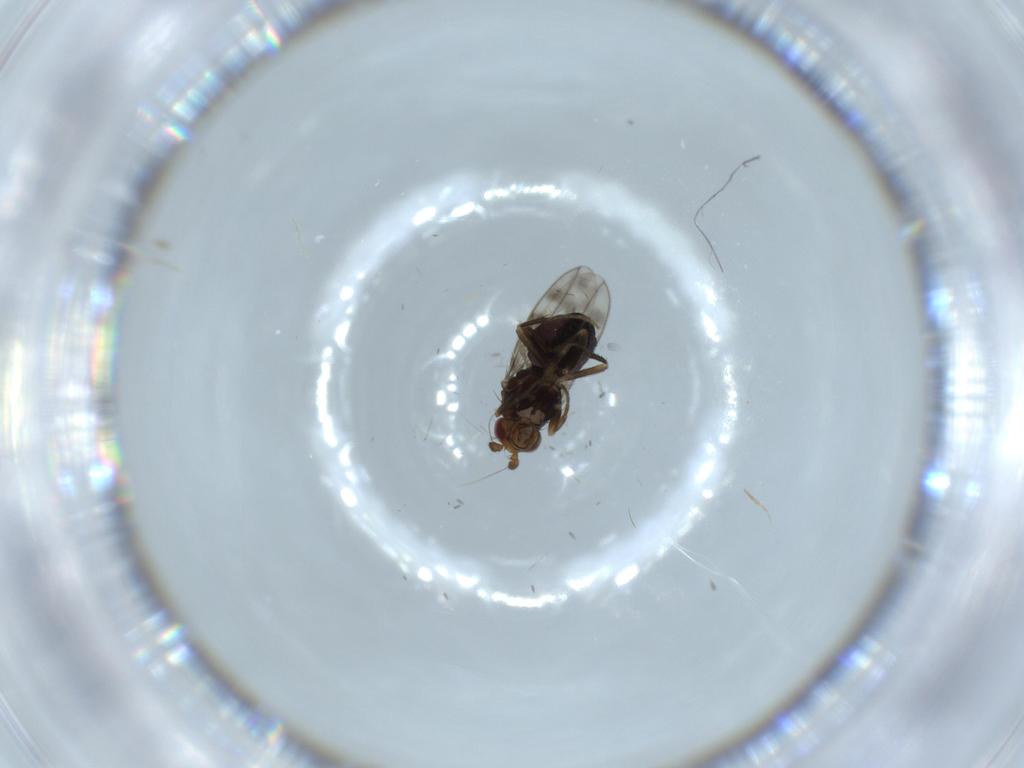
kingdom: Animalia
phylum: Arthropoda
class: Insecta
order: Diptera
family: Sphaeroceridae
